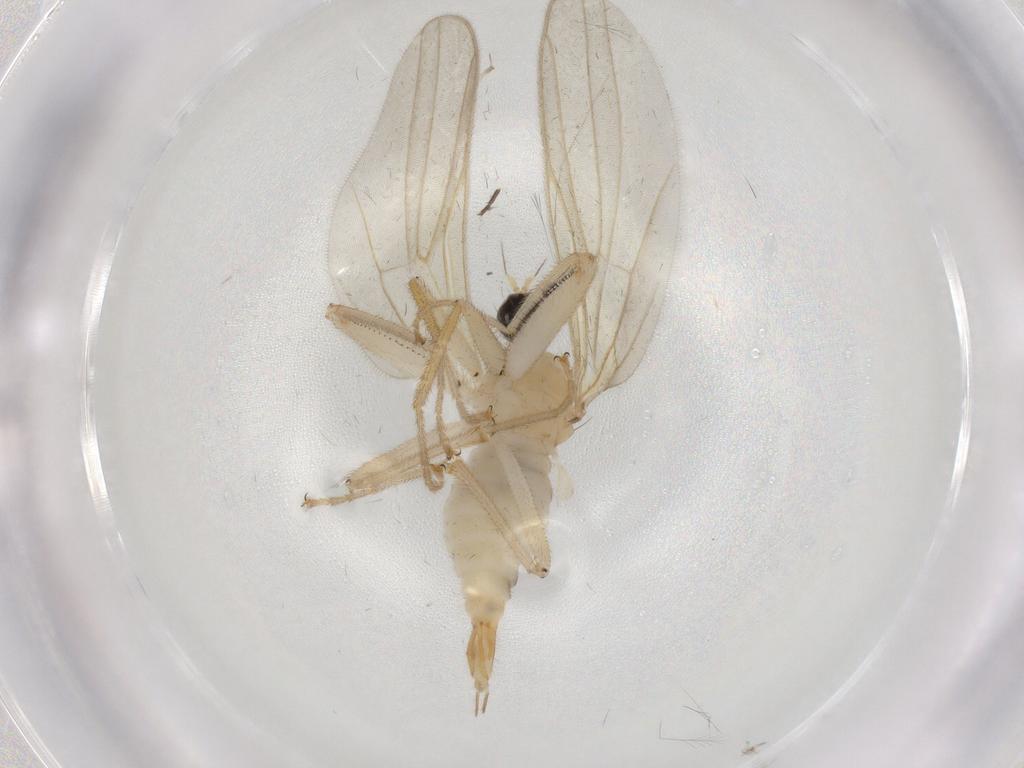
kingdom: Animalia
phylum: Arthropoda
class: Insecta
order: Diptera
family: Hybotidae
